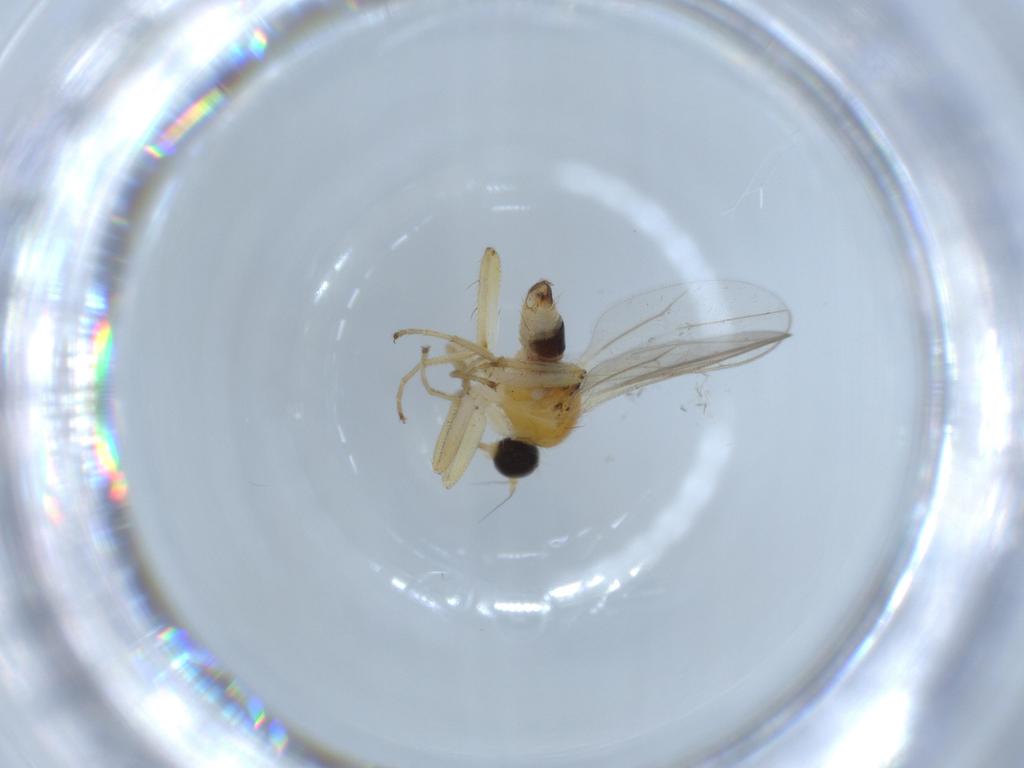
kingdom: Animalia
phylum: Arthropoda
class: Insecta
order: Diptera
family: Hybotidae
